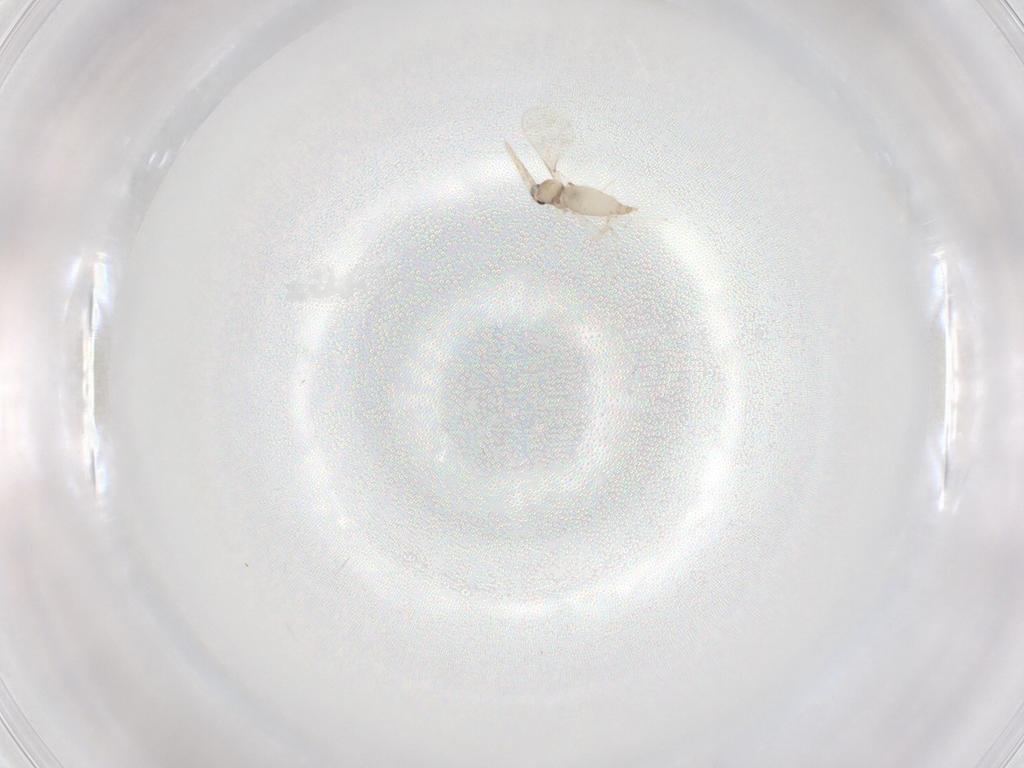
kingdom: Animalia
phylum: Arthropoda
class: Insecta
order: Diptera
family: Cecidomyiidae
